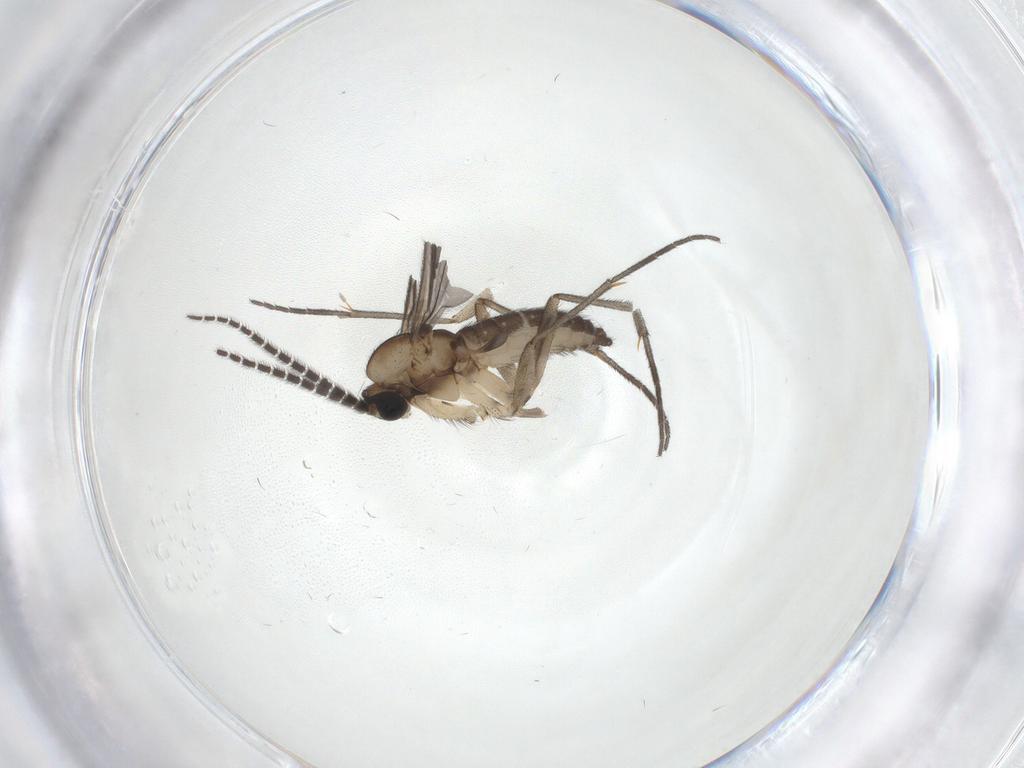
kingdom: Animalia
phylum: Arthropoda
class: Insecta
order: Diptera
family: Sciaridae
